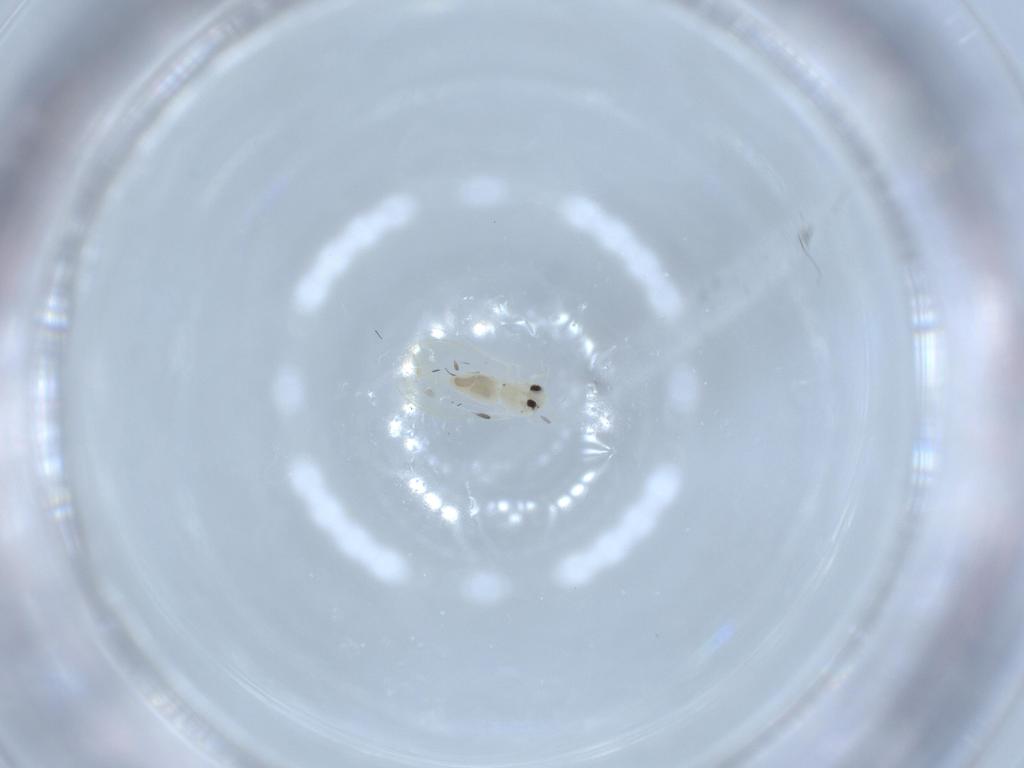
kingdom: Animalia
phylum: Arthropoda
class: Insecta
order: Hemiptera
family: Aleyrodidae
